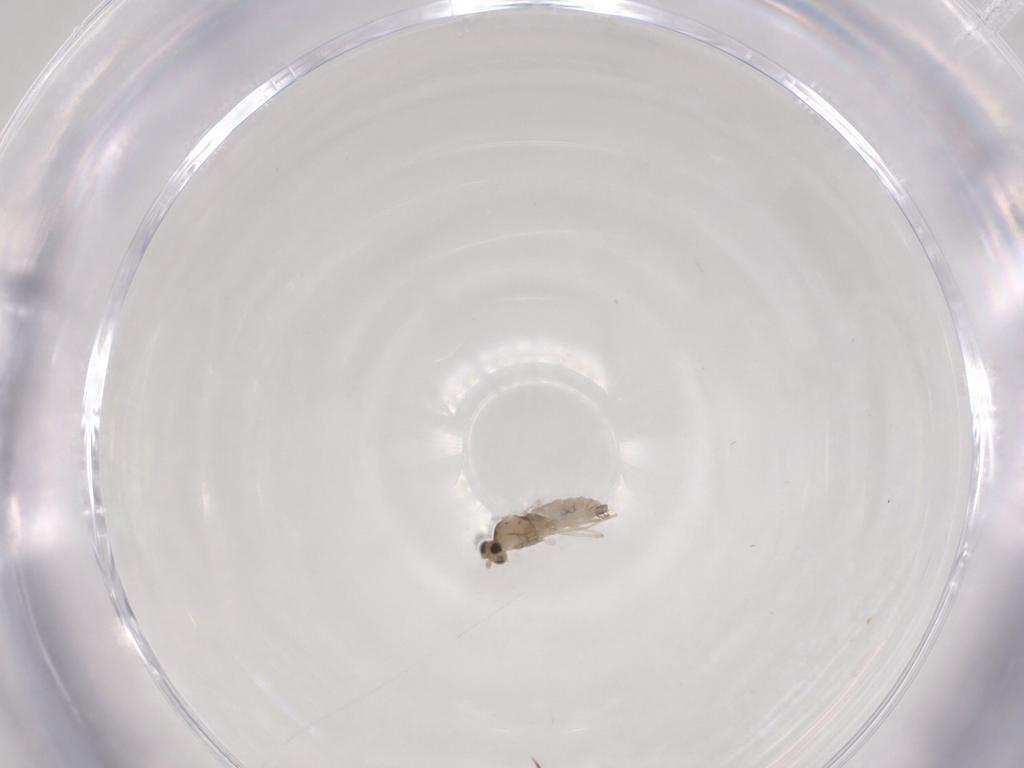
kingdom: Animalia
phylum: Arthropoda
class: Insecta
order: Diptera
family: Cecidomyiidae
